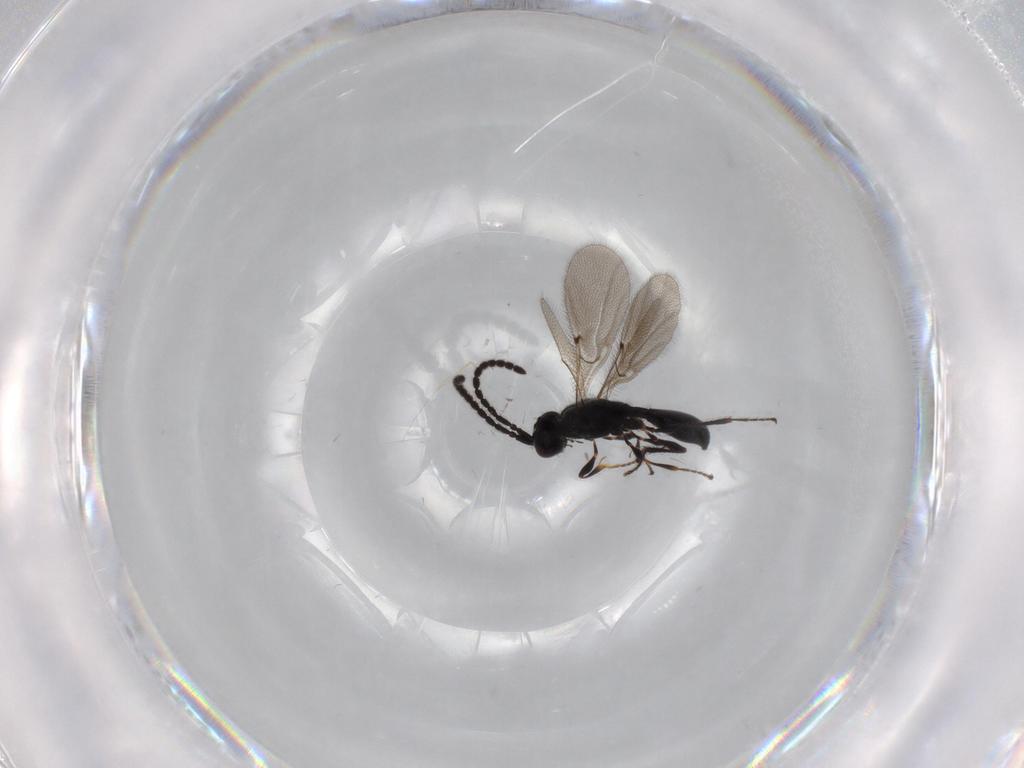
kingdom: Animalia
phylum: Arthropoda
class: Insecta
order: Hymenoptera
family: Diapriidae
